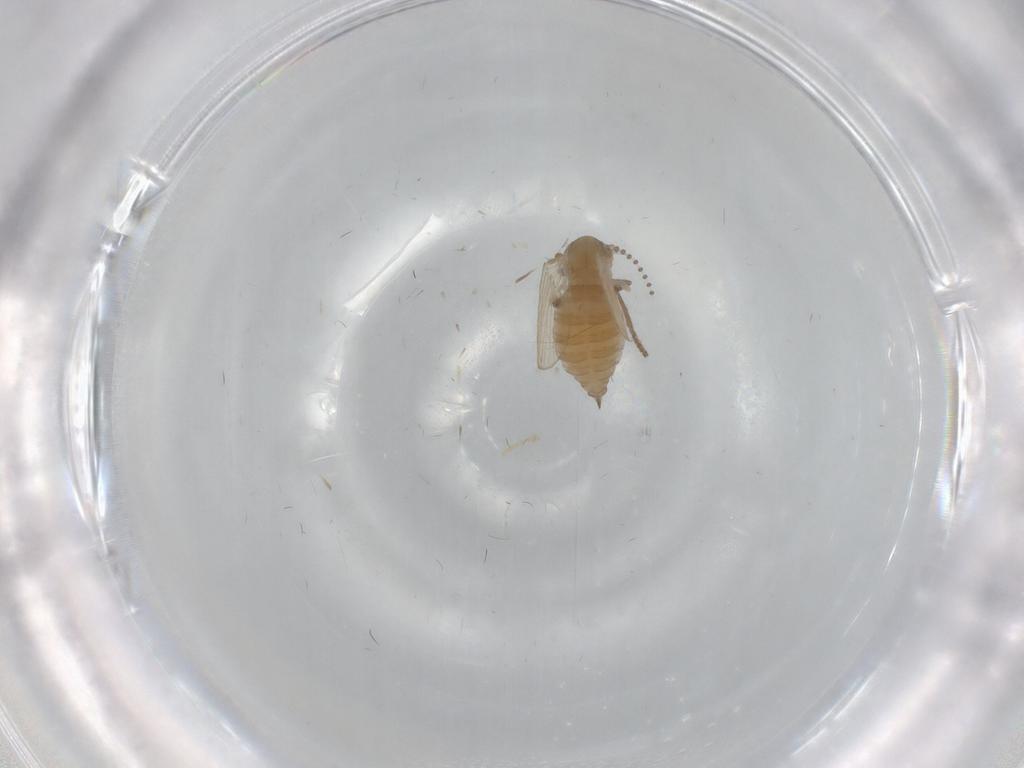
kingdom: Animalia
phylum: Arthropoda
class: Insecta
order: Diptera
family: Psychodidae
